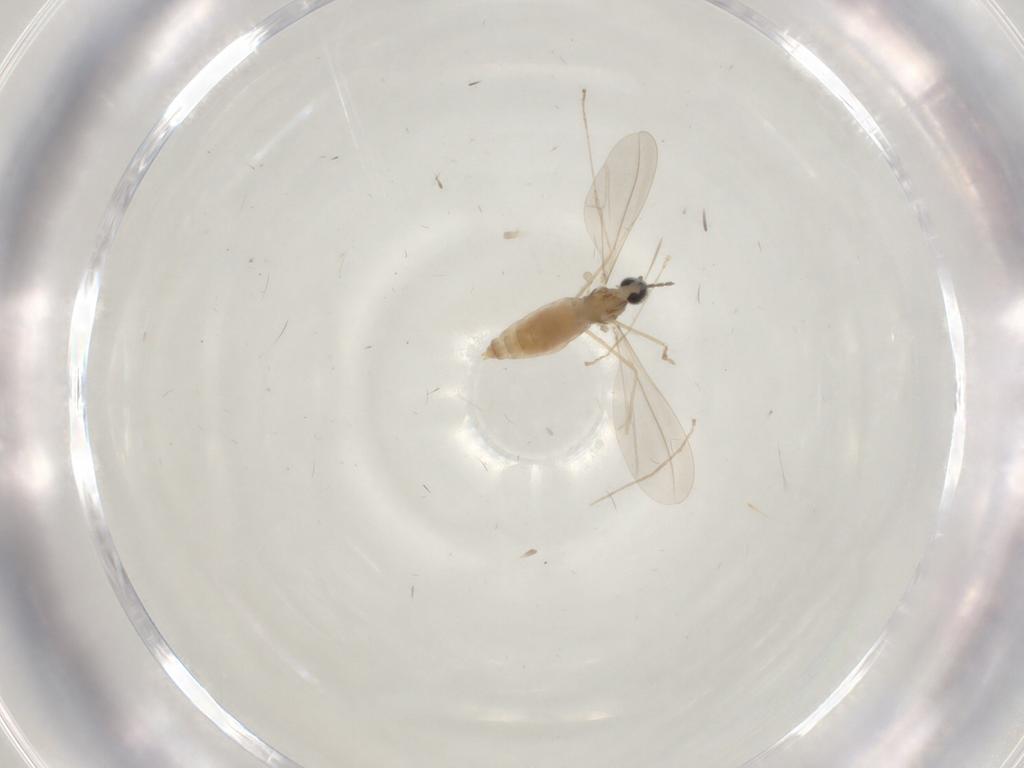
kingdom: Animalia
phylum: Arthropoda
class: Insecta
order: Diptera
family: Cecidomyiidae
